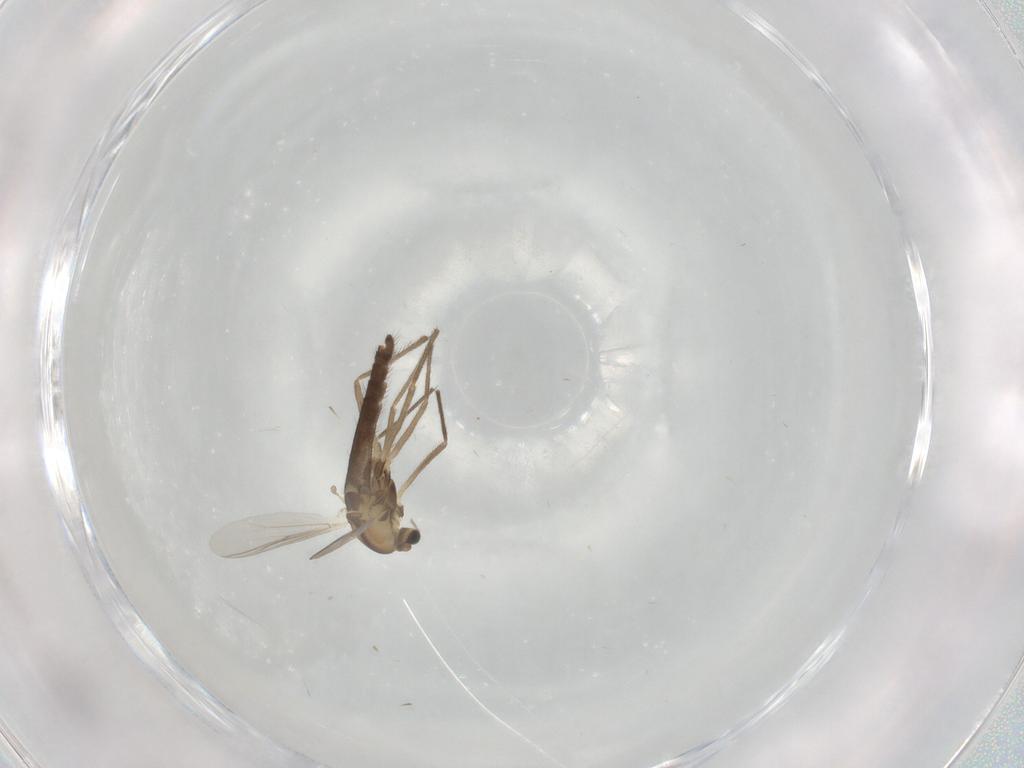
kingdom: Animalia
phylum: Arthropoda
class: Insecta
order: Diptera
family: Chironomidae
